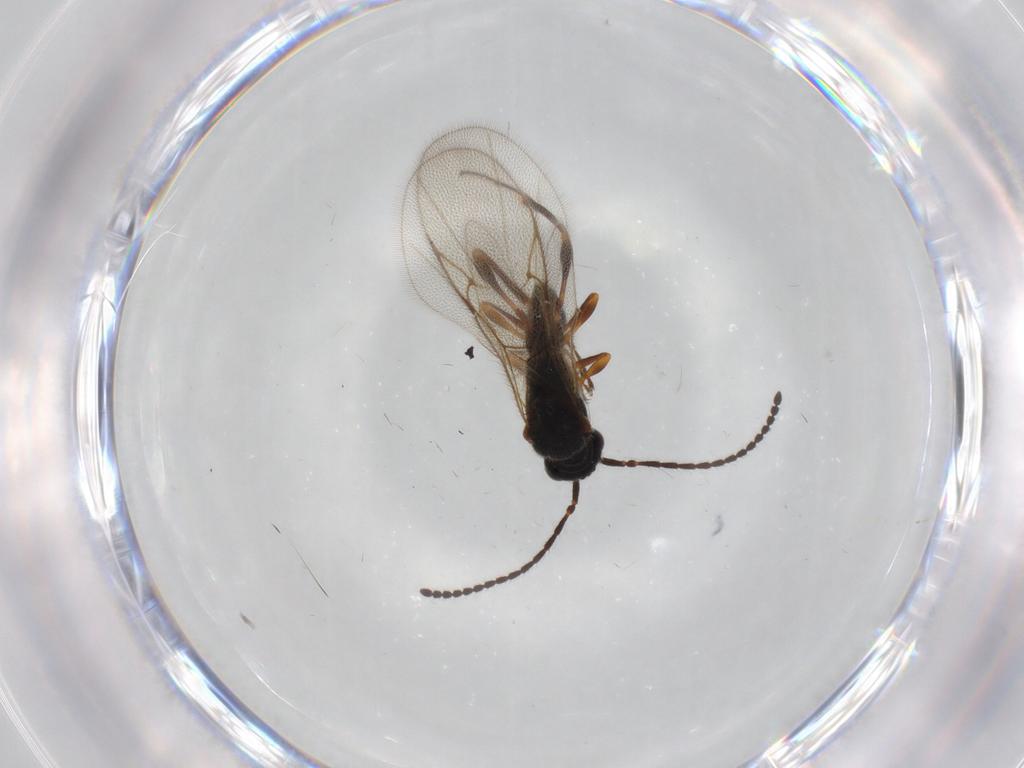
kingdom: Animalia
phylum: Arthropoda
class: Insecta
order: Hymenoptera
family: Diapriidae
